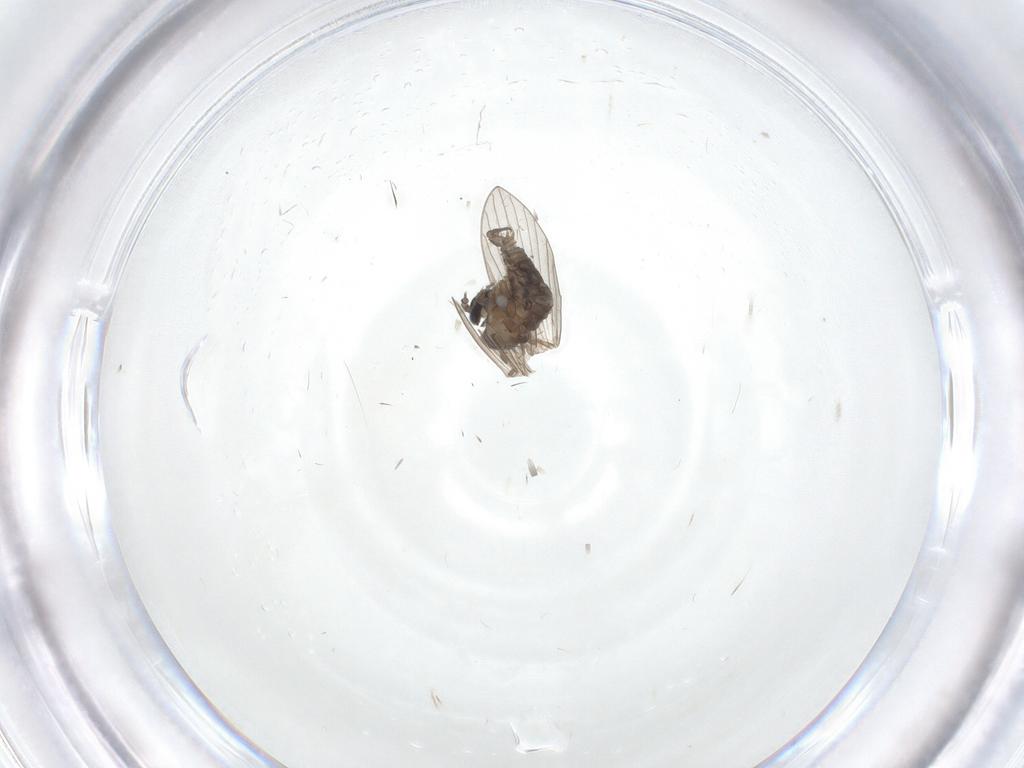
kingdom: Animalia
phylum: Arthropoda
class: Insecta
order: Diptera
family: Psychodidae
